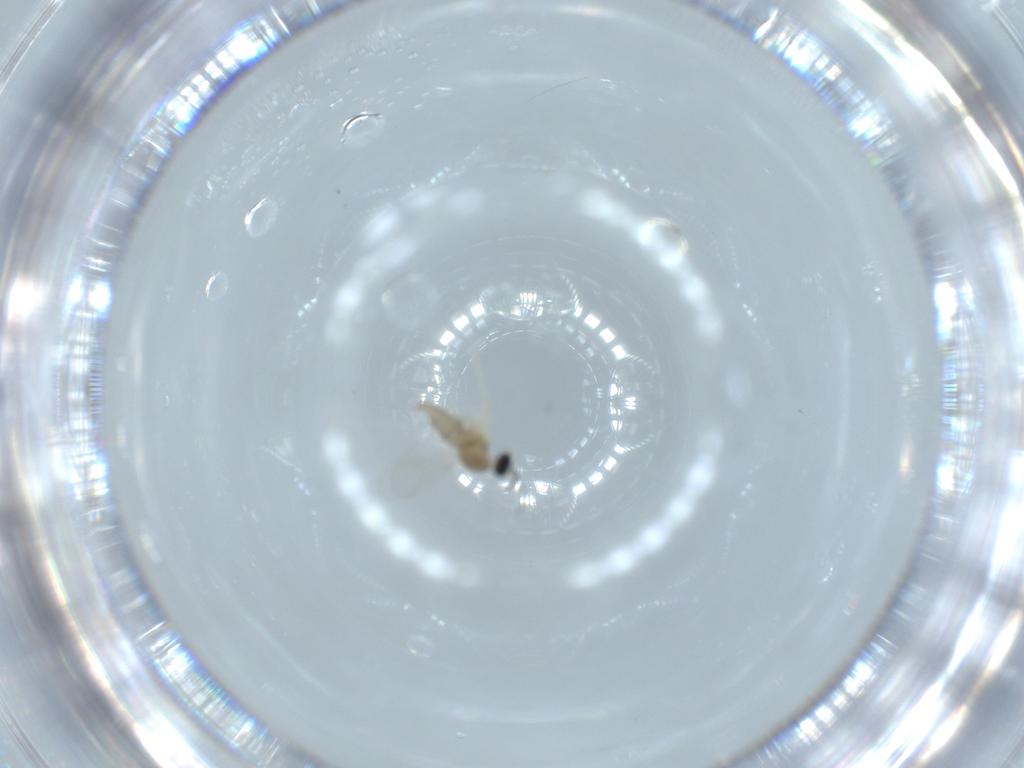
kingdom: Animalia
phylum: Arthropoda
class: Insecta
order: Diptera
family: Cecidomyiidae
